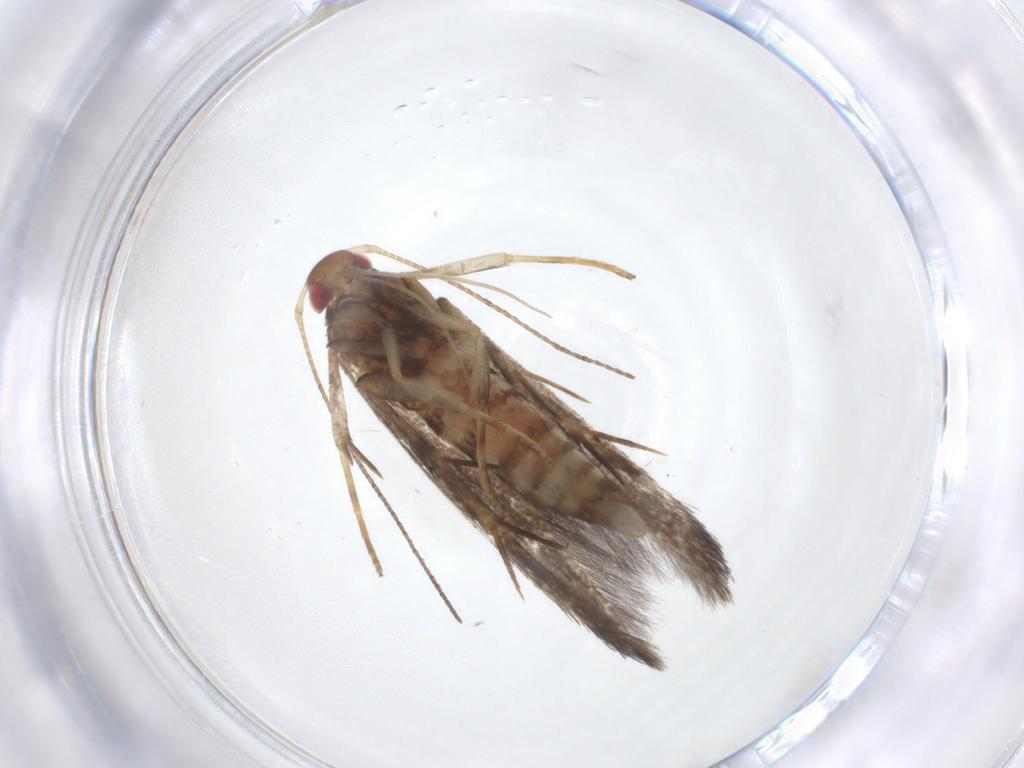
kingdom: Animalia
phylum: Arthropoda
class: Insecta
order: Lepidoptera
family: Gelechiidae
